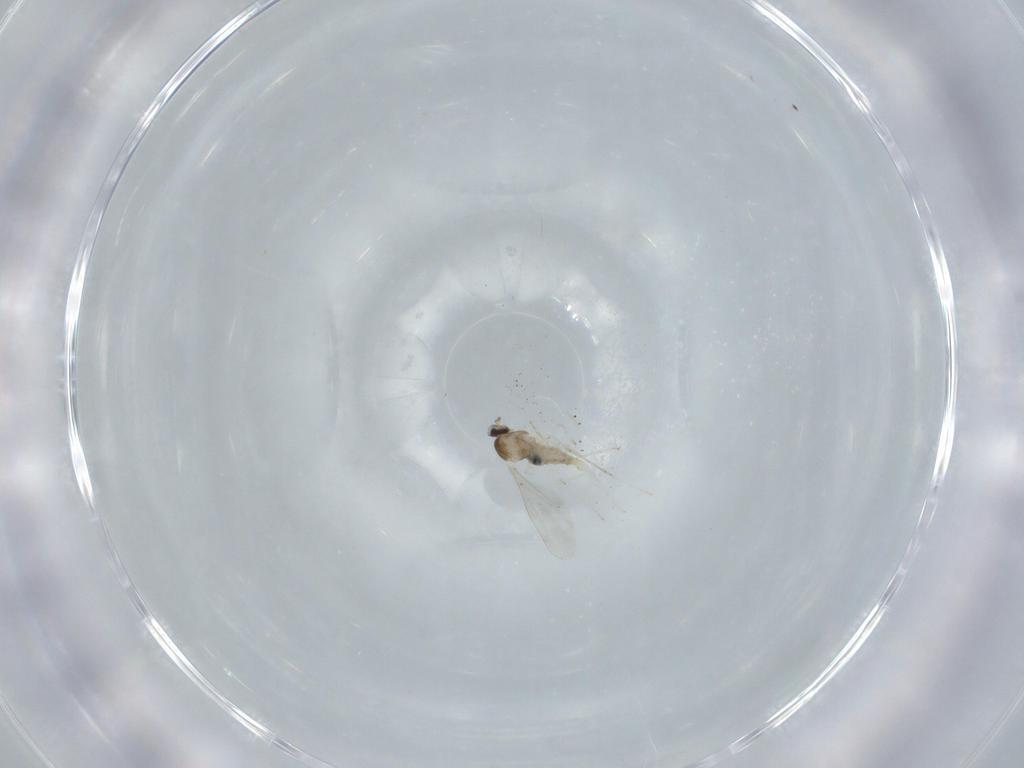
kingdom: Animalia
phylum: Arthropoda
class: Insecta
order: Diptera
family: Cecidomyiidae
